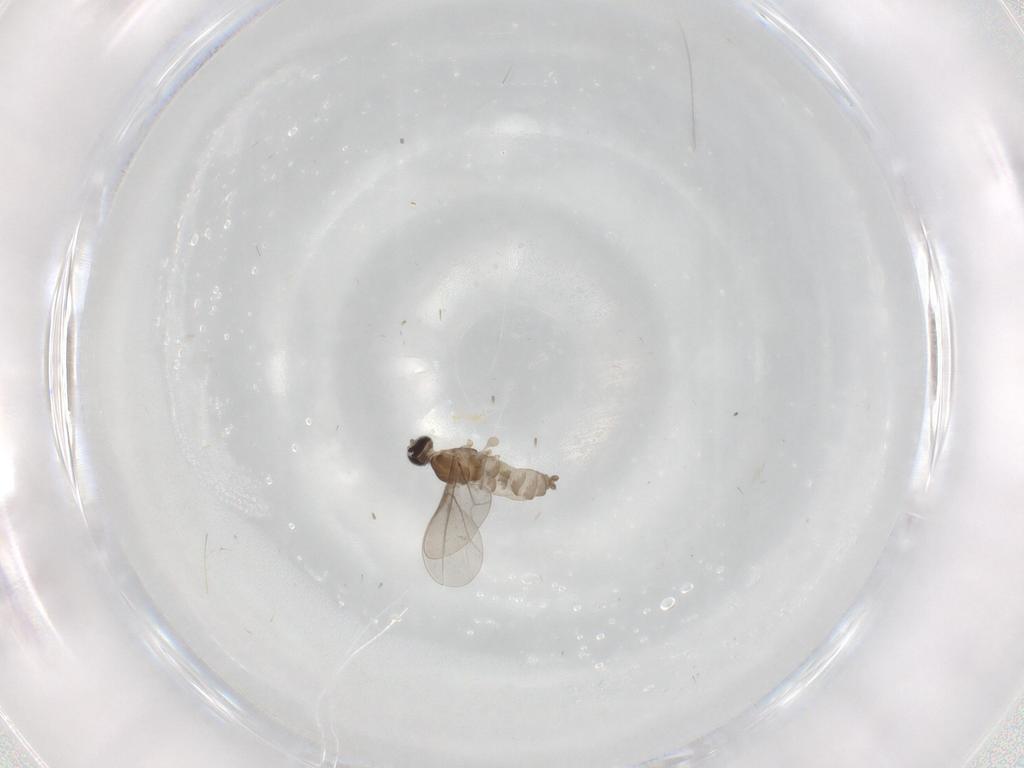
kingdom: Animalia
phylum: Arthropoda
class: Insecta
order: Diptera
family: Cecidomyiidae
